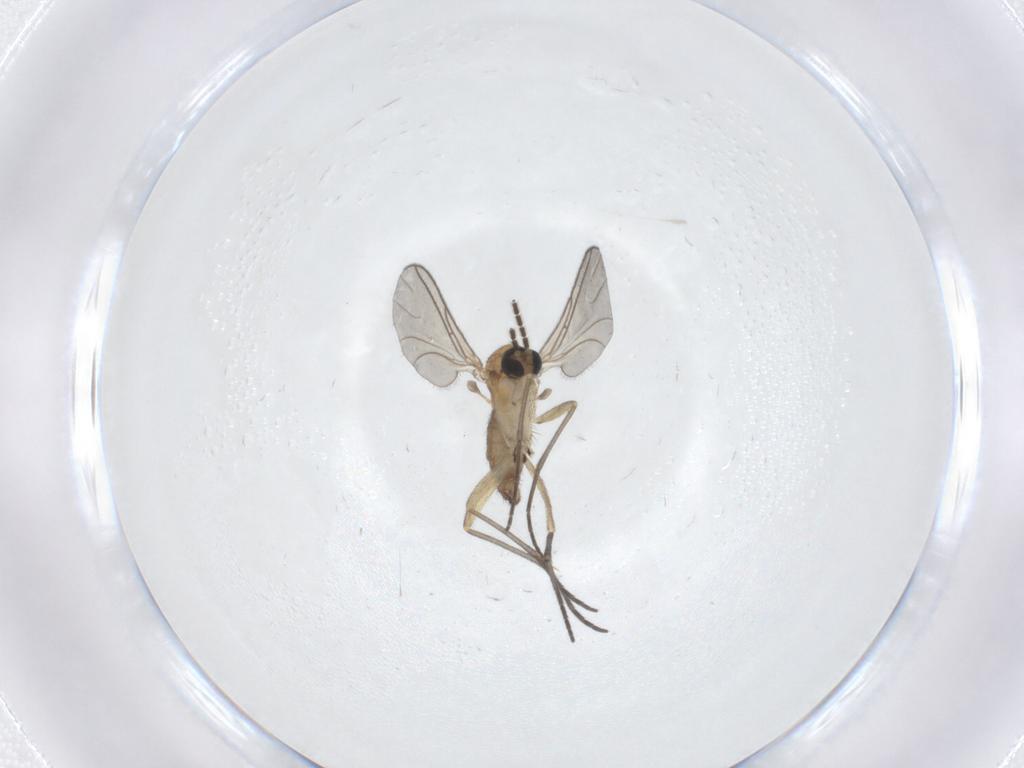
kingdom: Animalia
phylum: Arthropoda
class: Insecta
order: Diptera
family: Sciaridae
